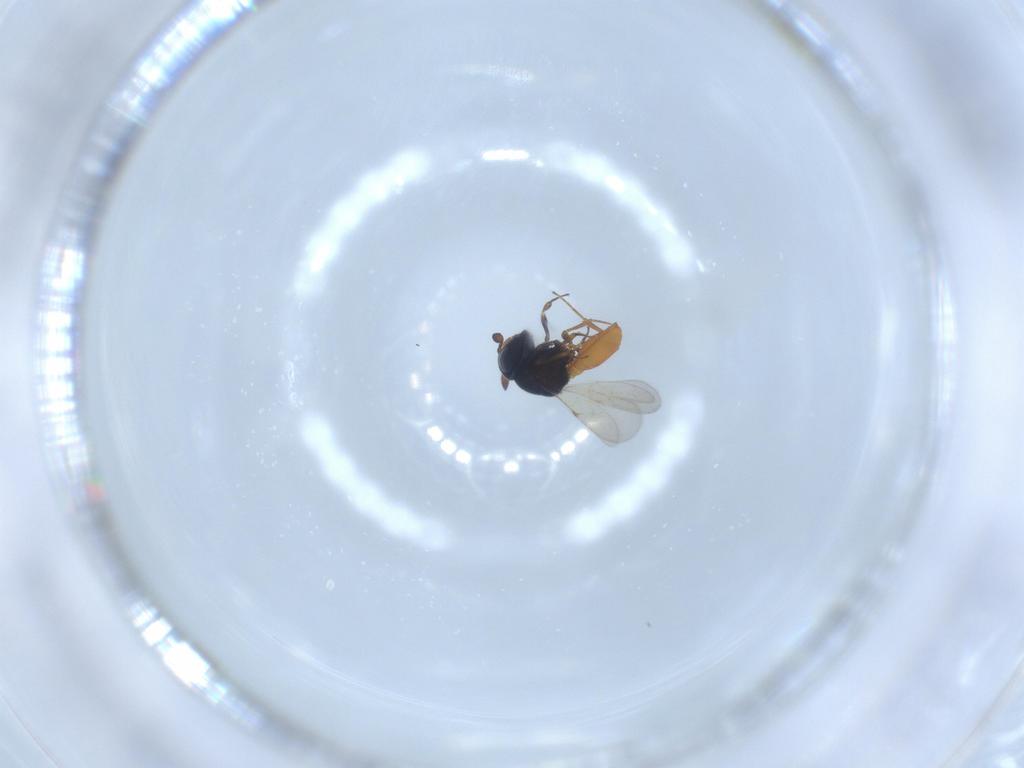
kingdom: Animalia
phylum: Arthropoda
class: Insecta
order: Hymenoptera
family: Scelionidae
